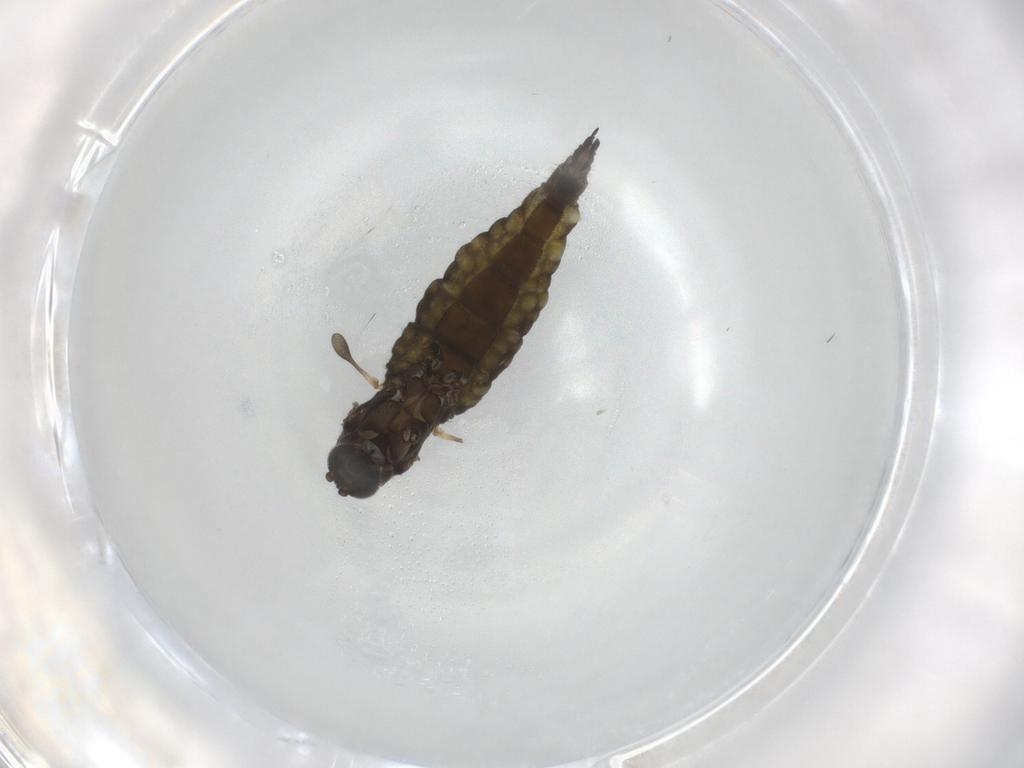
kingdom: Animalia
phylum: Arthropoda
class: Insecta
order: Diptera
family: Sciaridae
